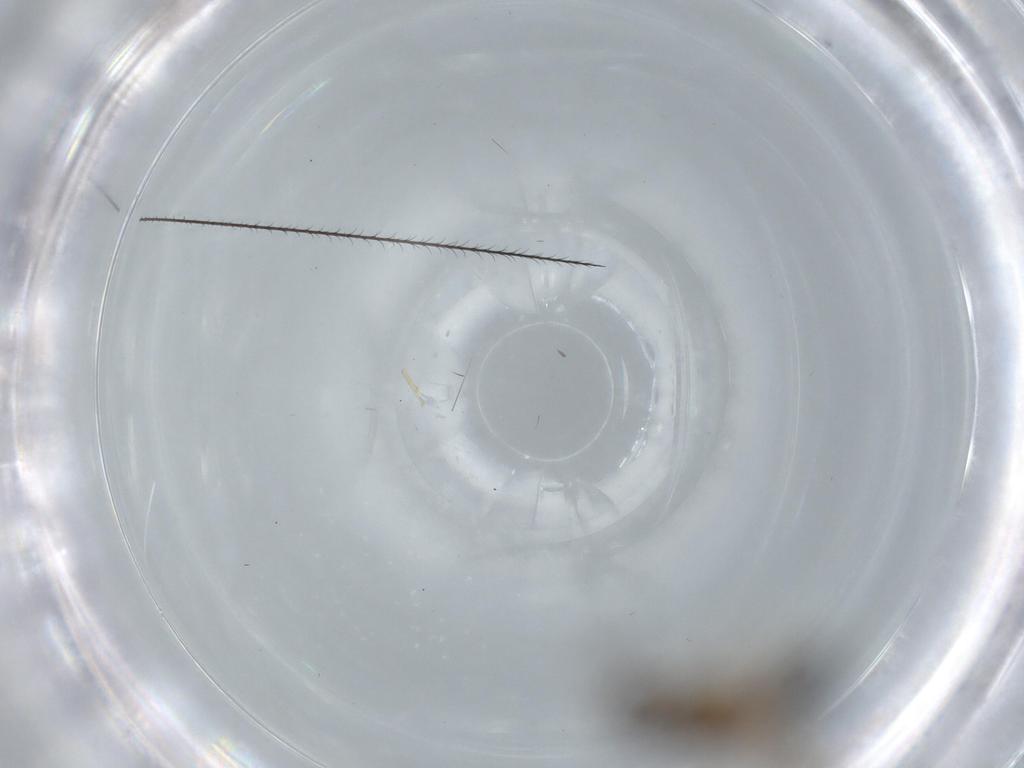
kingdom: Animalia
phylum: Arthropoda
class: Insecta
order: Hymenoptera
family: Scelionidae
